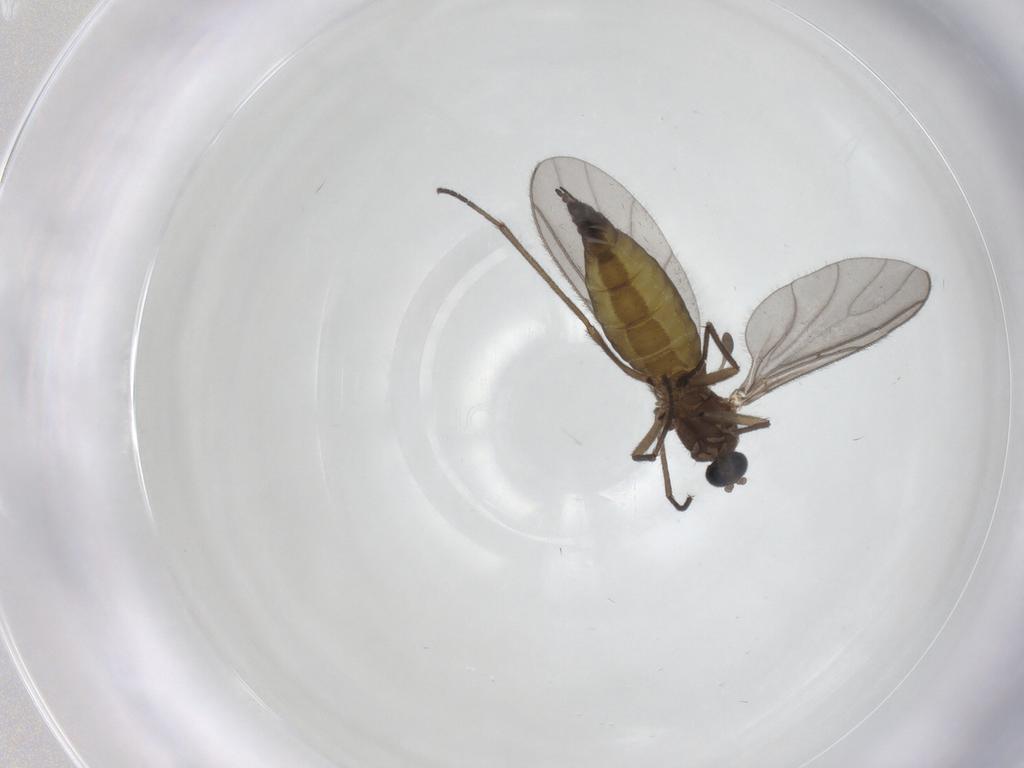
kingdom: Animalia
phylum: Arthropoda
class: Insecta
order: Diptera
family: Sciaridae
